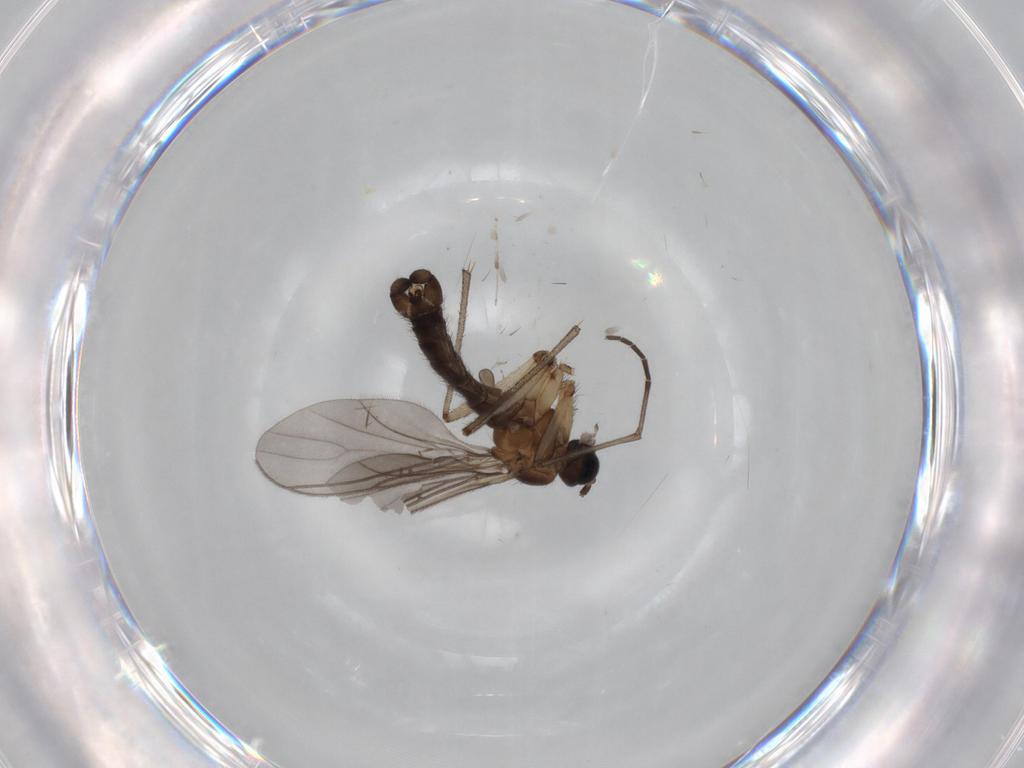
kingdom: Animalia
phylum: Arthropoda
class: Insecta
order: Diptera
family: Sciaridae
